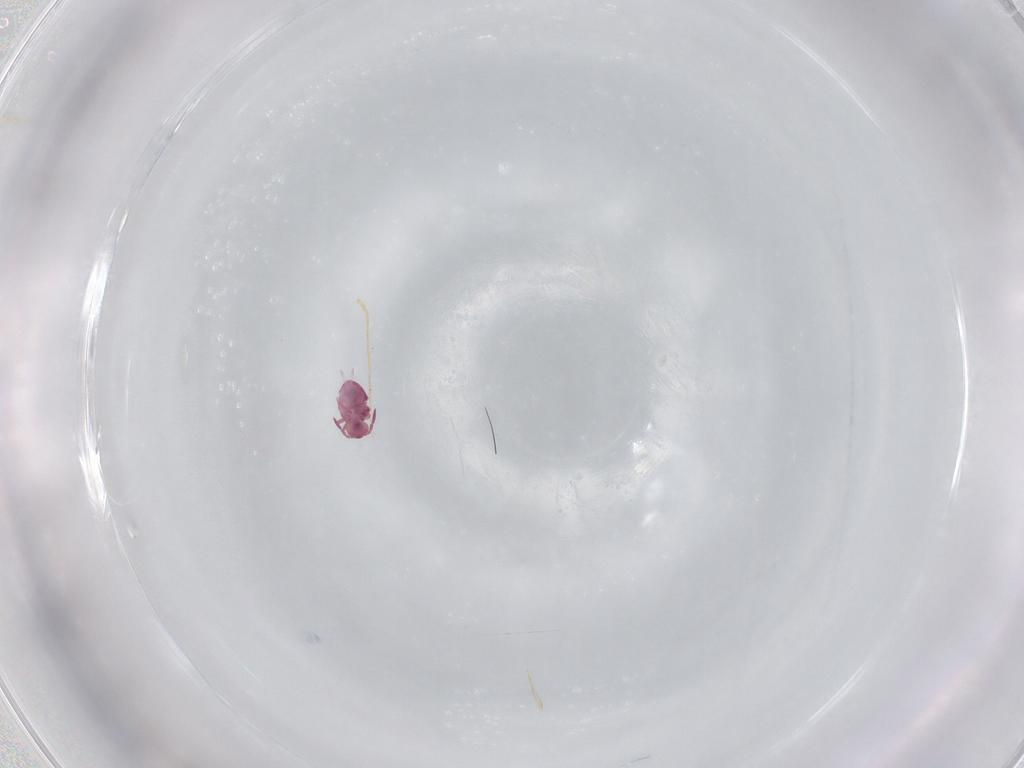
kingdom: Animalia
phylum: Arthropoda
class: Collembola
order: Symphypleona
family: Sminthurididae
